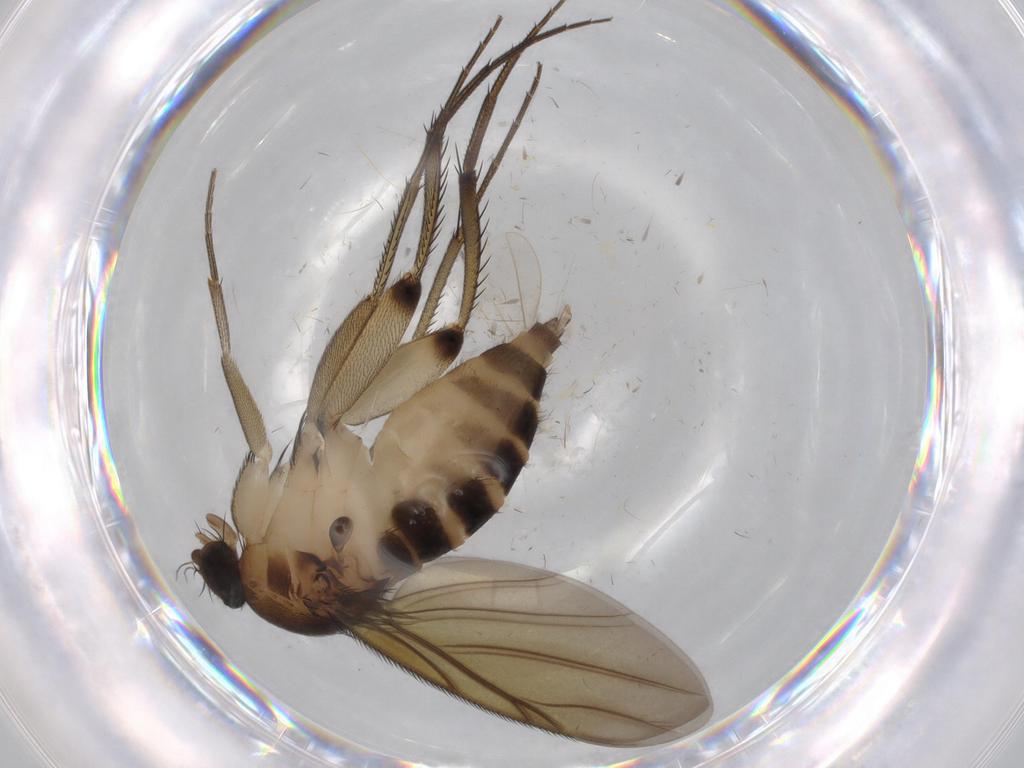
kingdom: Animalia
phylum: Arthropoda
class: Insecta
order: Diptera
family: Phoridae
